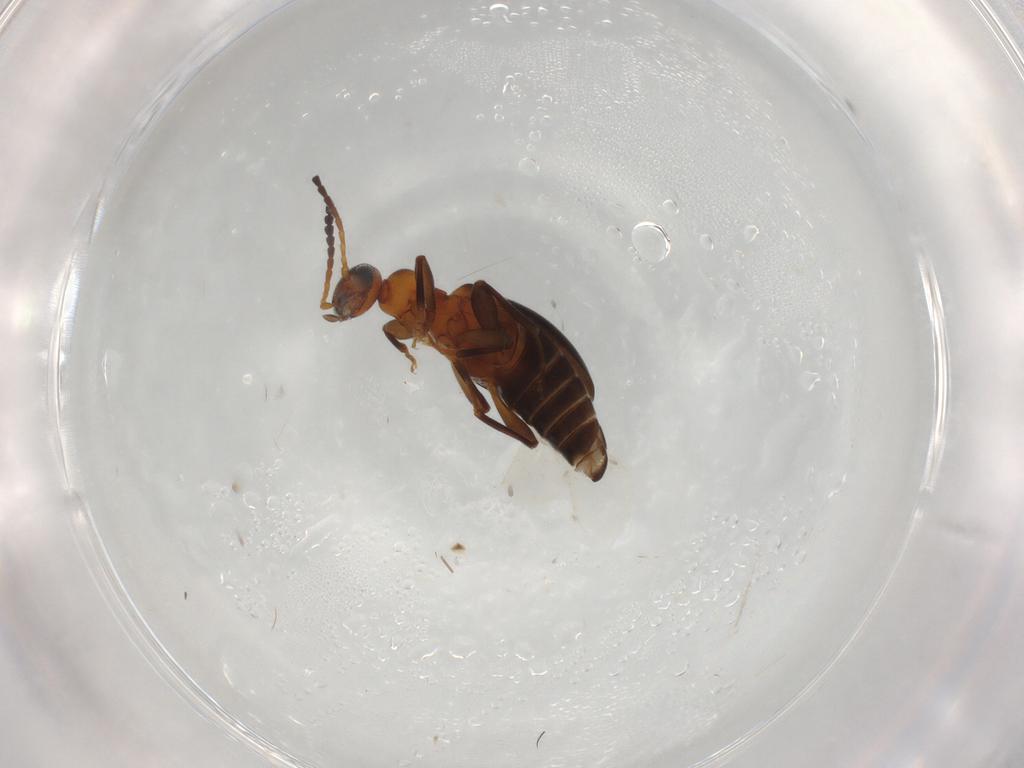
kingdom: Animalia
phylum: Arthropoda
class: Insecta
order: Coleoptera
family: Anthicidae
